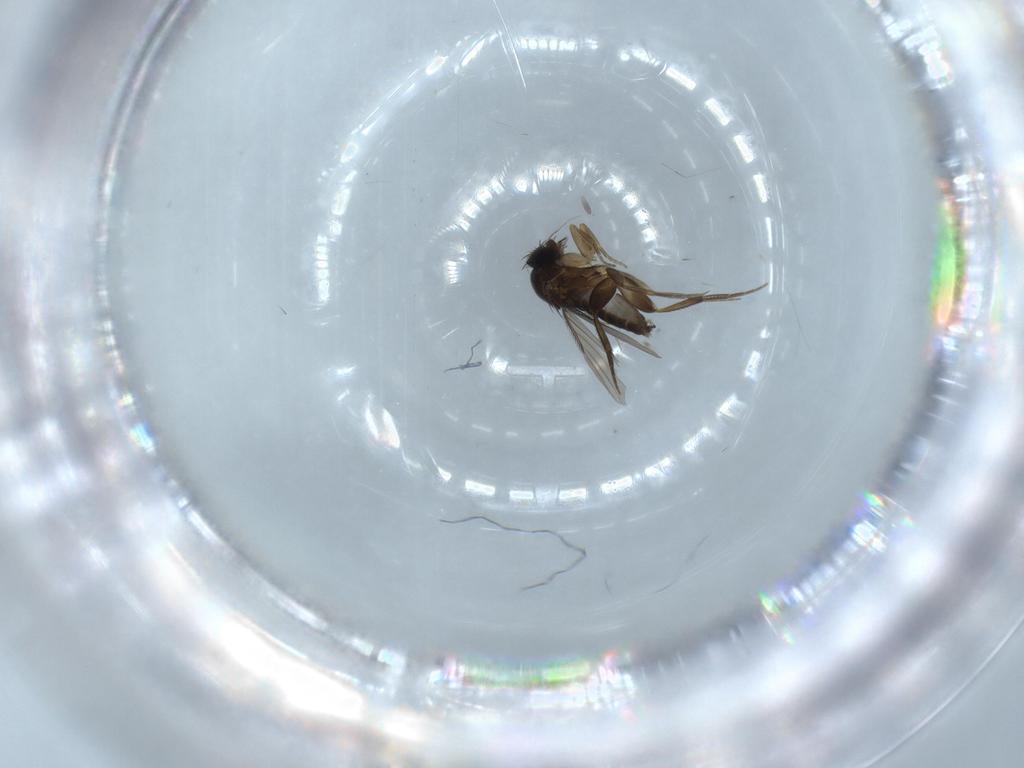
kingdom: Animalia
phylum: Arthropoda
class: Insecta
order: Diptera
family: Phoridae
